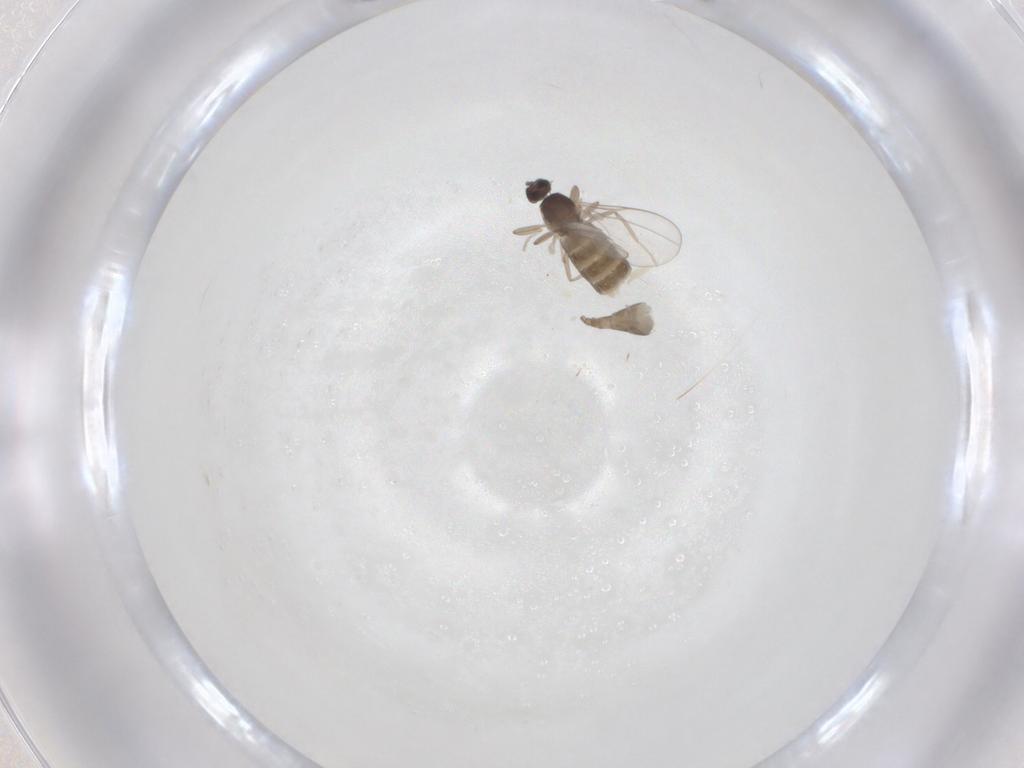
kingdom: Animalia
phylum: Arthropoda
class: Insecta
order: Diptera
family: Cecidomyiidae
